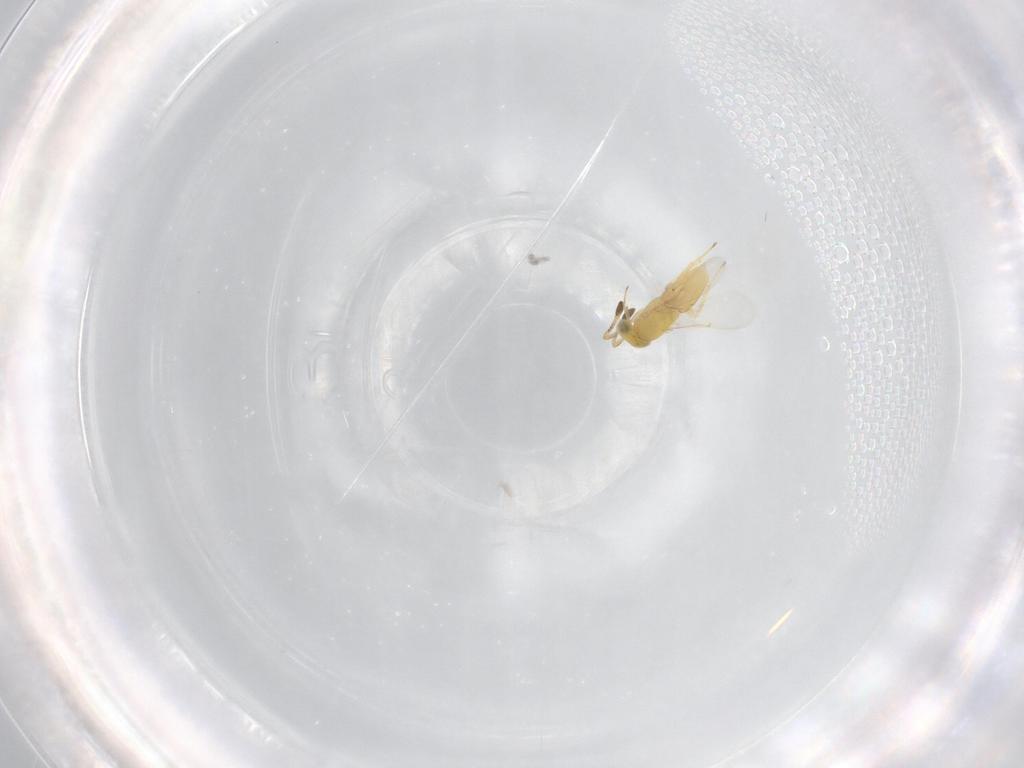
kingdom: Animalia
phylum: Arthropoda
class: Insecta
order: Hymenoptera
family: Encyrtidae
